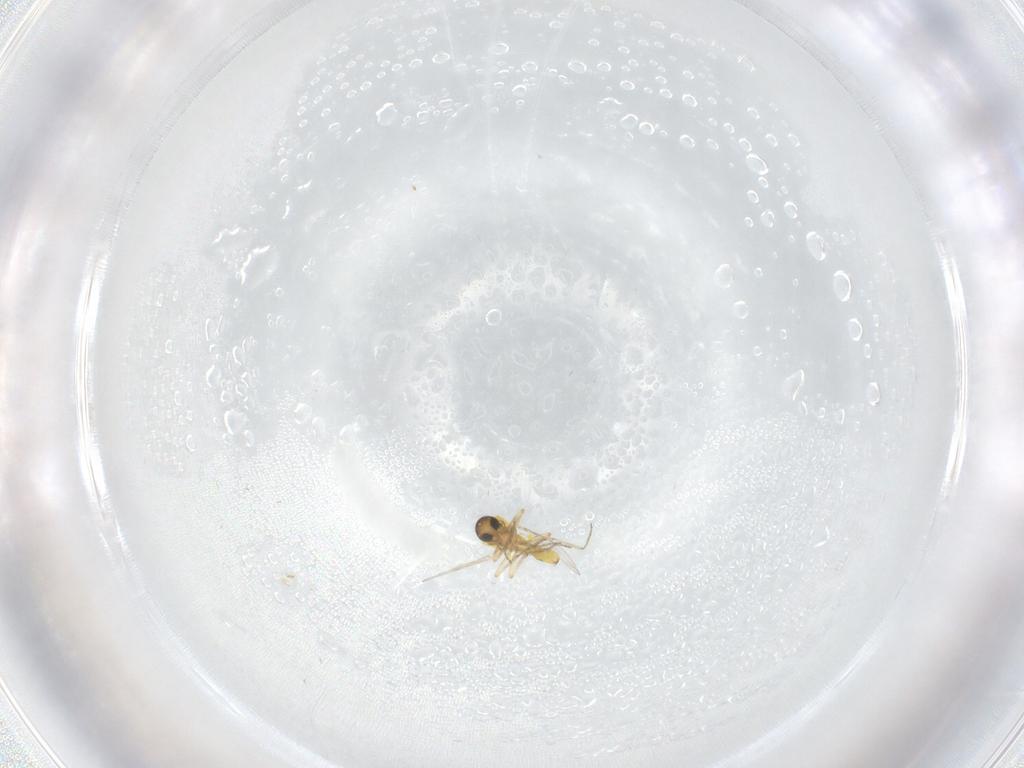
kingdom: Animalia
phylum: Arthropoda
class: Insecta
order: Diptera
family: Ceratopogonidae
